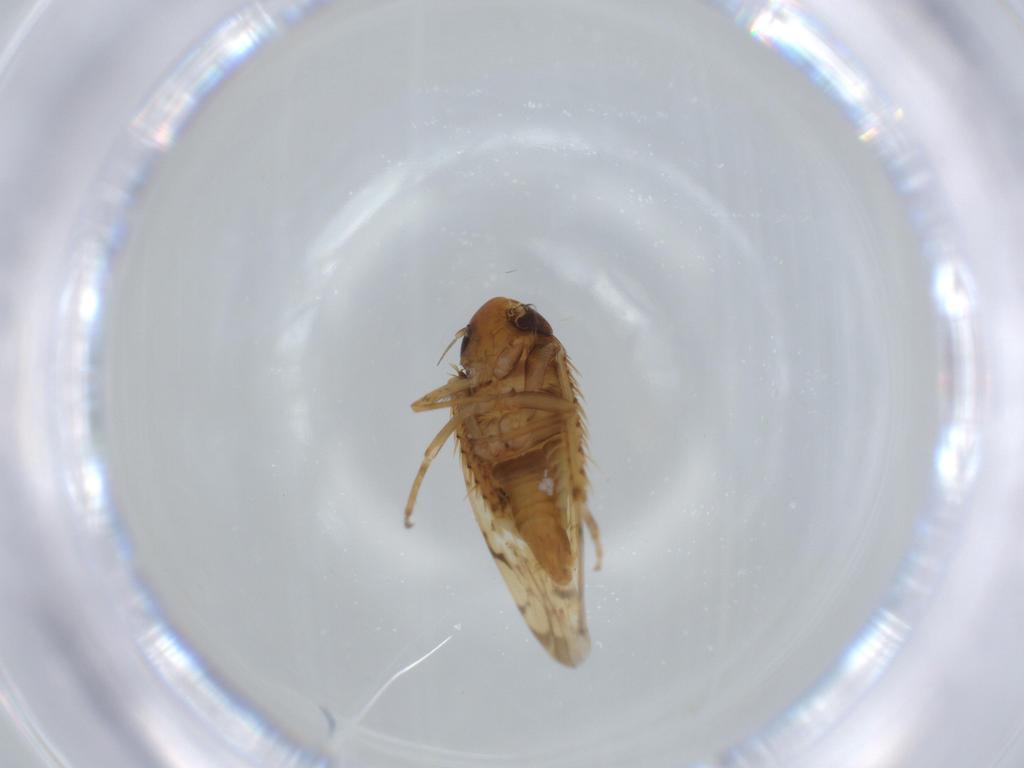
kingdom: Animalia
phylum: Arthropoda
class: Insecta
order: Hemiptera
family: Cicadellidae
